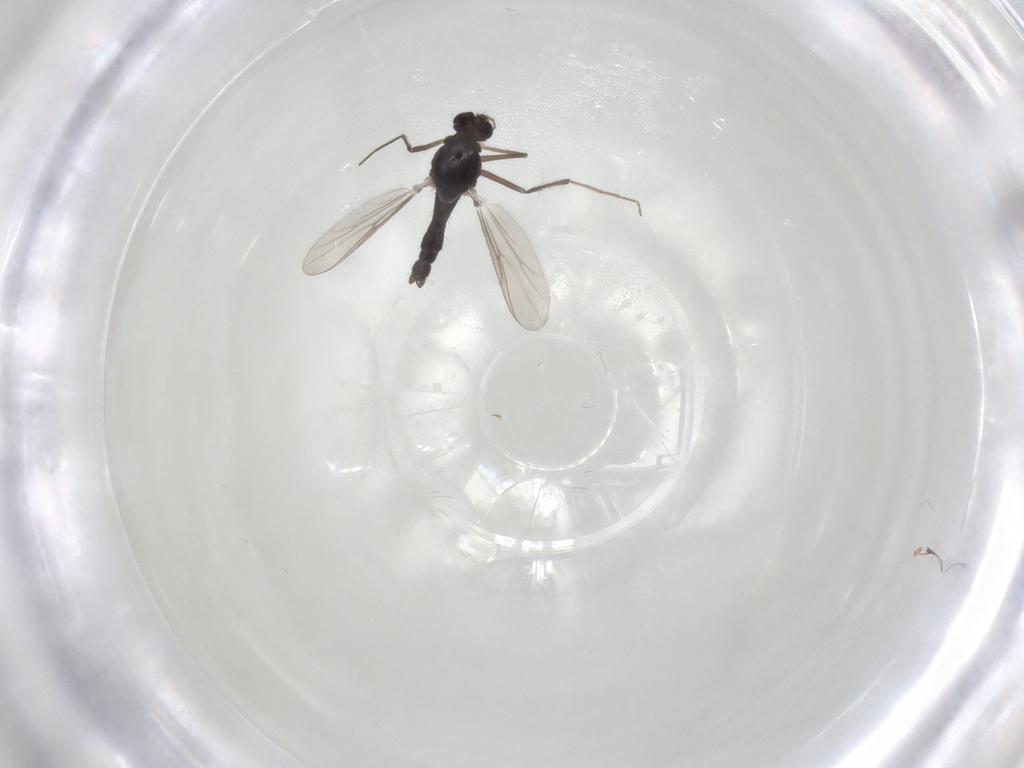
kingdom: Animalia
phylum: Arthropoda
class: Insecta
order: Diptera
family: Chironomidae
